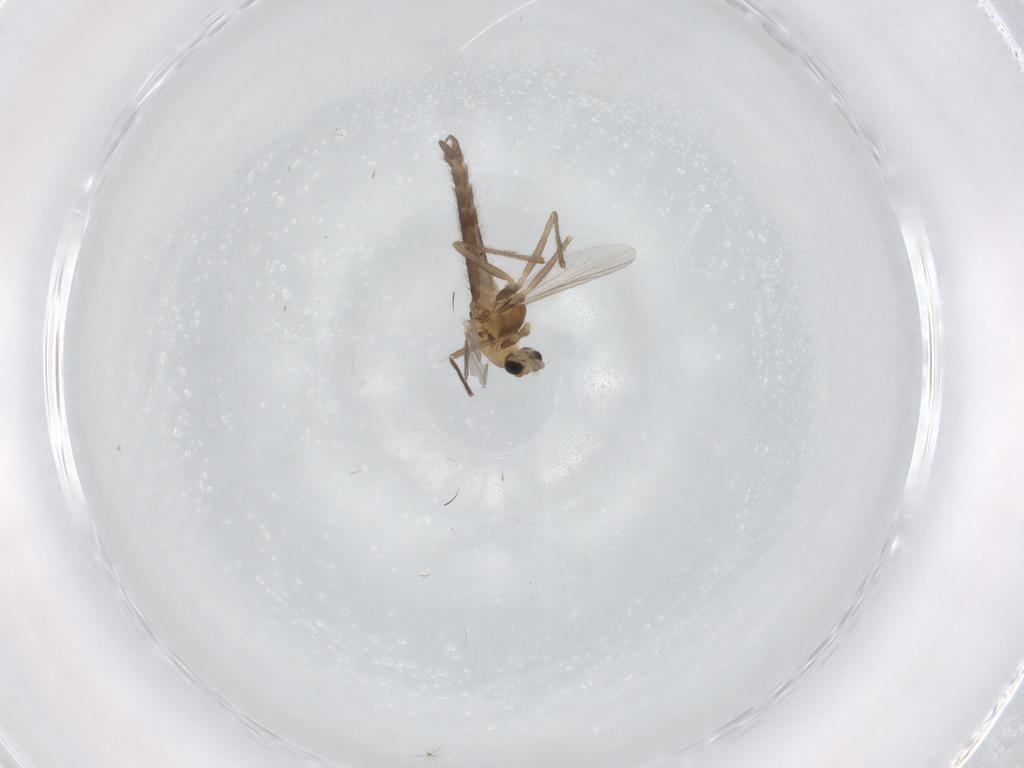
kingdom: Animalia
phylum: Arthropoda
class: Insecta
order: Diptera
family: Chironomidae
